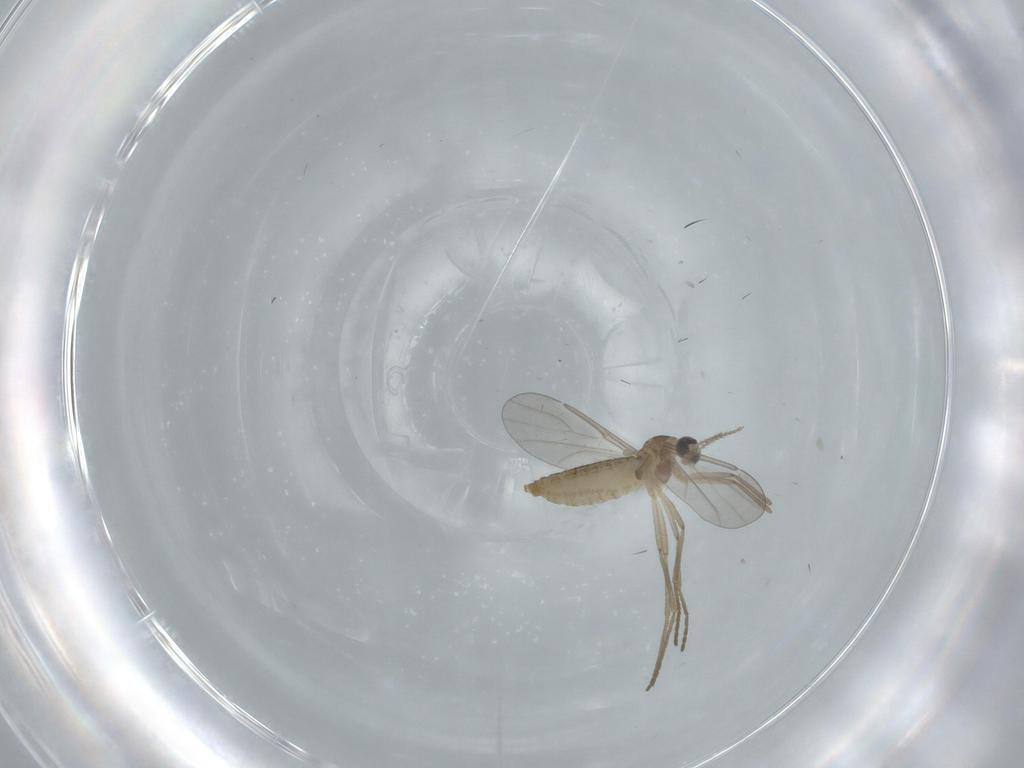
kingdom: Animalia
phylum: Arthropoda
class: Insecta
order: Diptera
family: Cecidomyiidae
